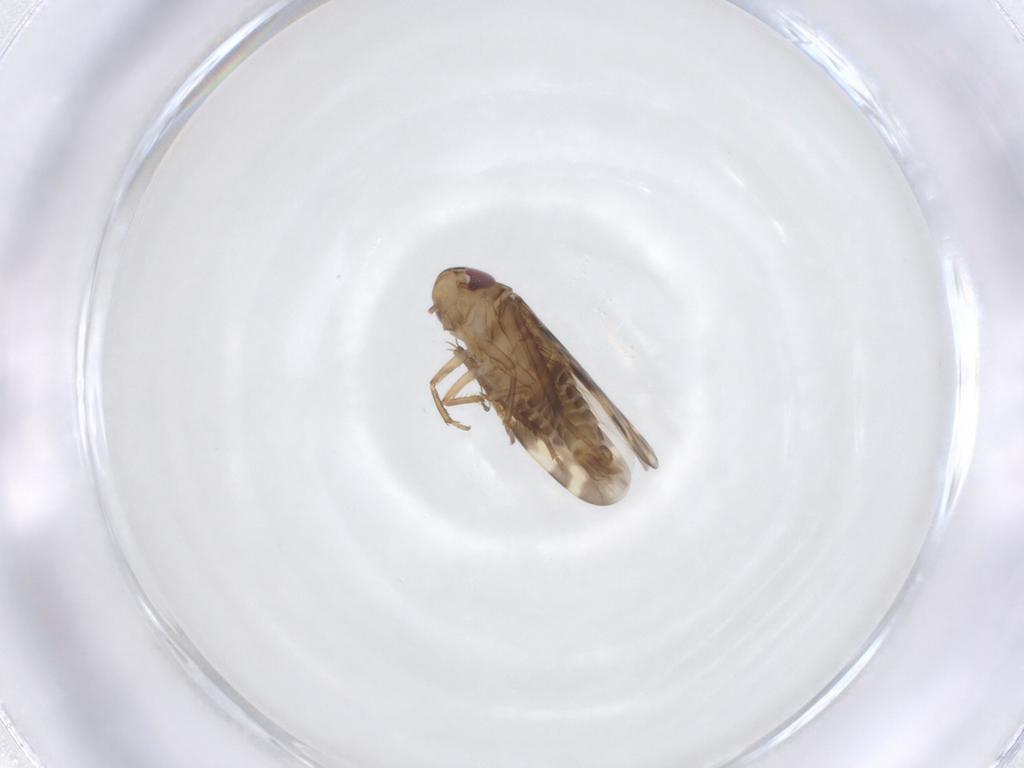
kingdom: Animalia
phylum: Arthropoda
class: Insecta
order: Hemiptera
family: Cicadellidae
